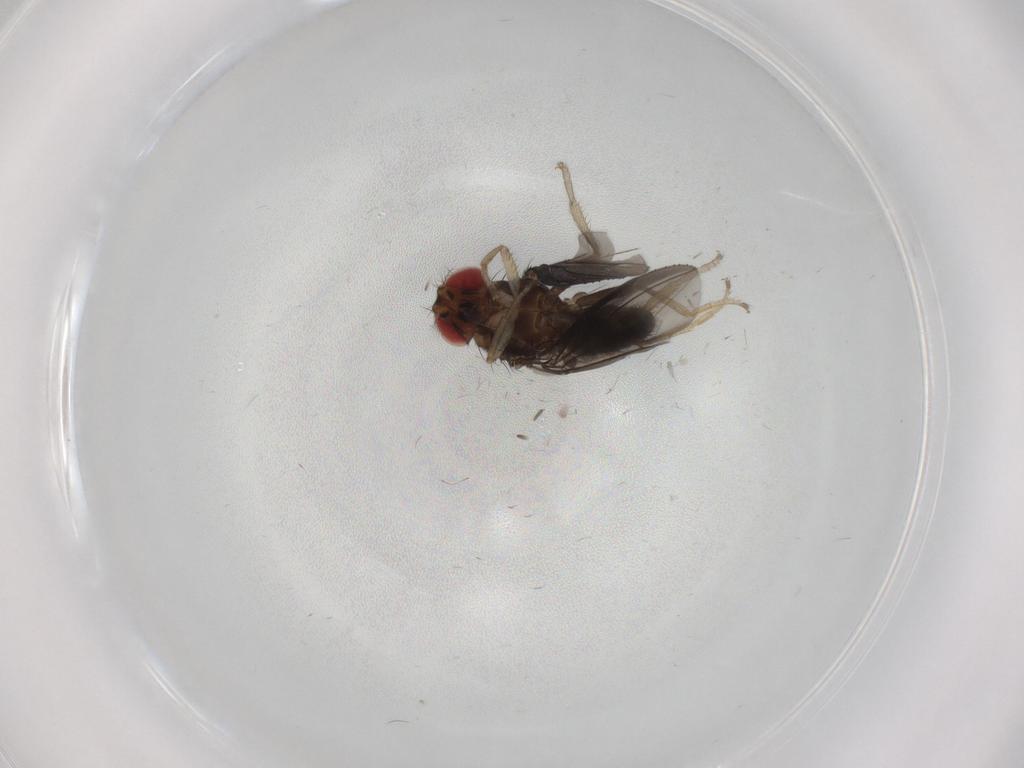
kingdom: Animalia
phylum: Arthropoda
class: Insecta
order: Diptera
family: Drosophilidae
